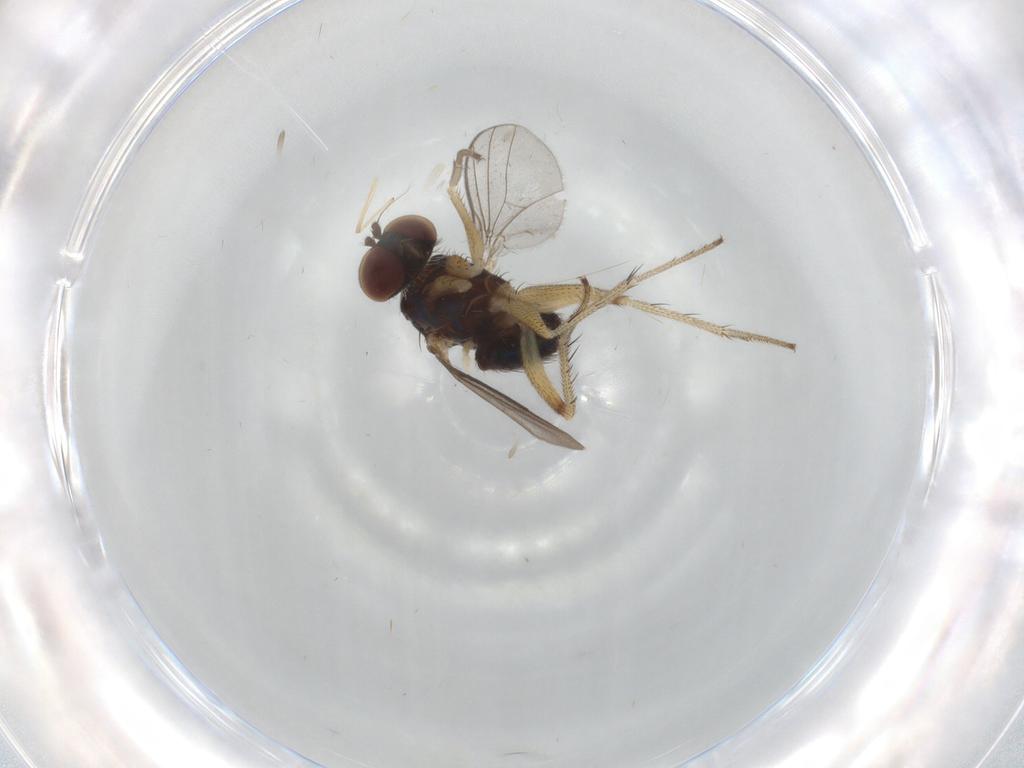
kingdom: Animalia
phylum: Arthropoda
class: Insecta
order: Diptera
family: Dolichopodidae
